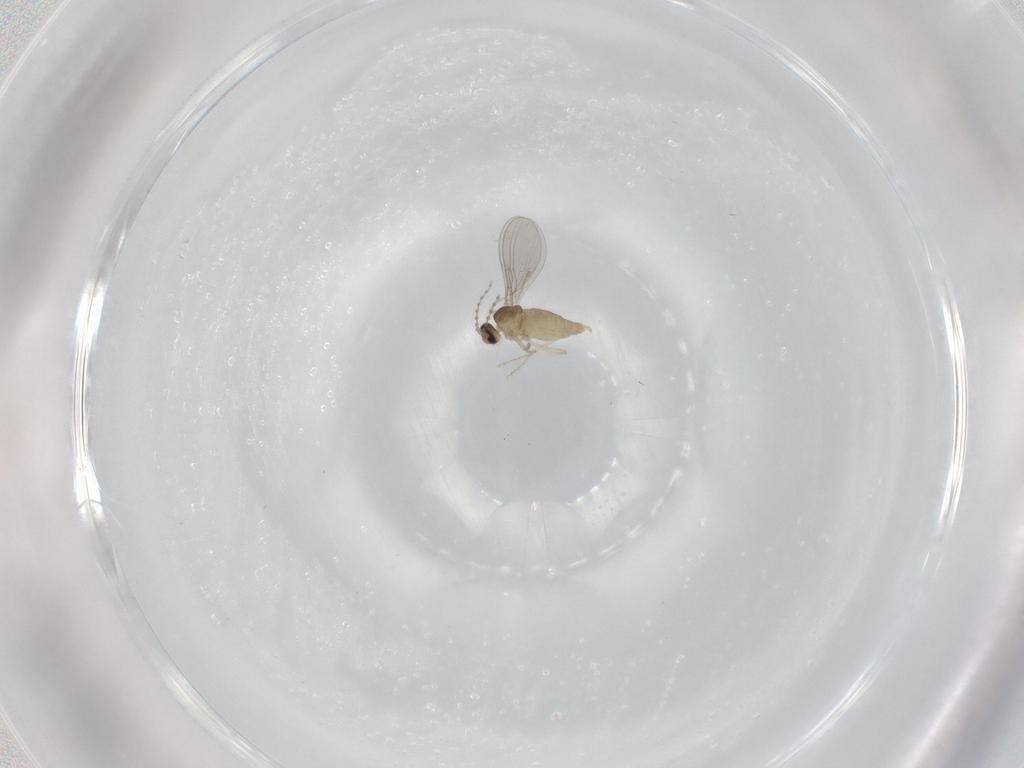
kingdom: Animalia
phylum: Arthropoda
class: Insecta
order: Diptera
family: Cecidomyiidae
